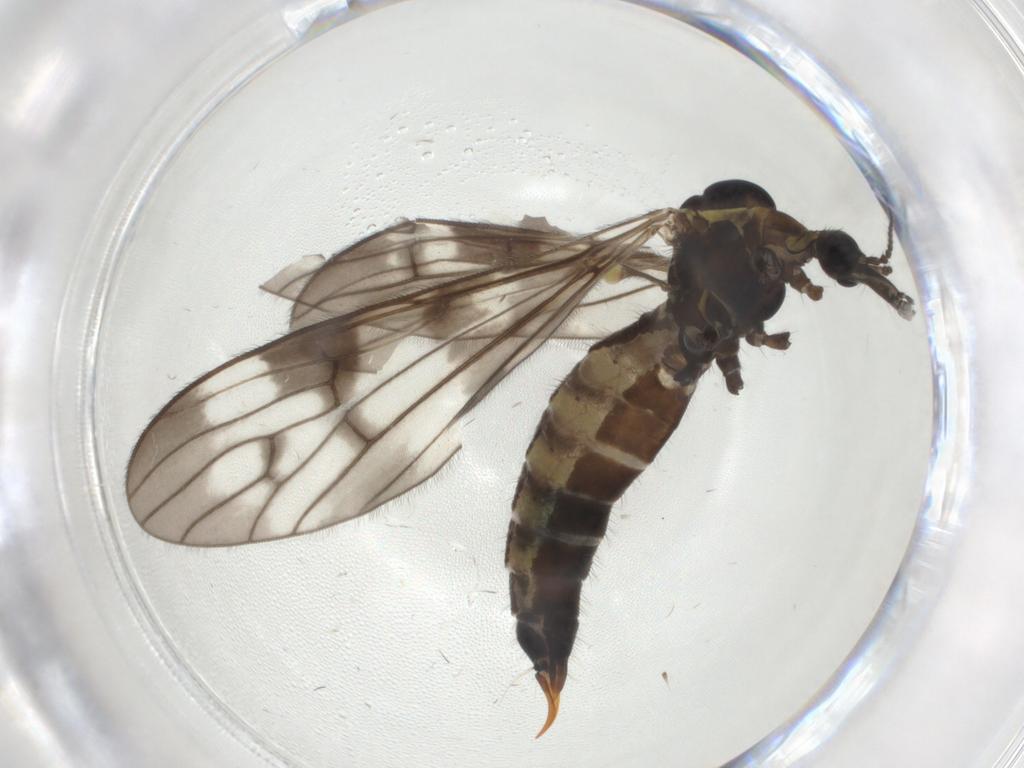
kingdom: Animalia
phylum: Arthropoda
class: Insecta
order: Diptera
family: Limoniidae
